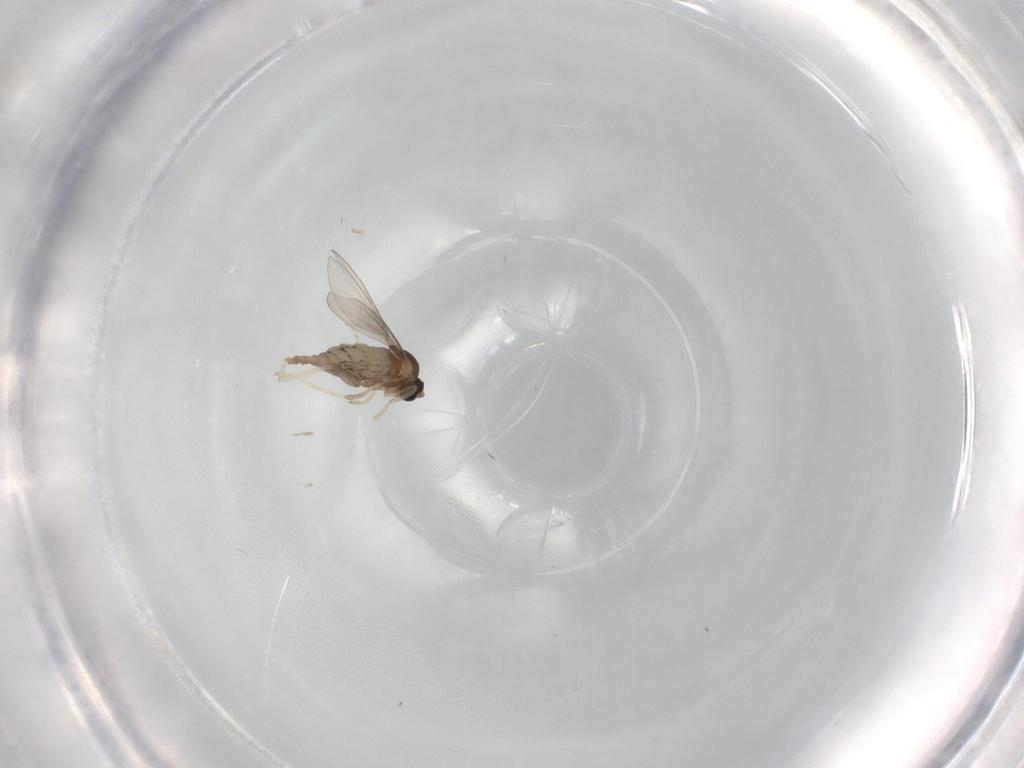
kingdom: Animalia
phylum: Arthropoda
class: Insecta
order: Diptera
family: Cecidomyiidae
